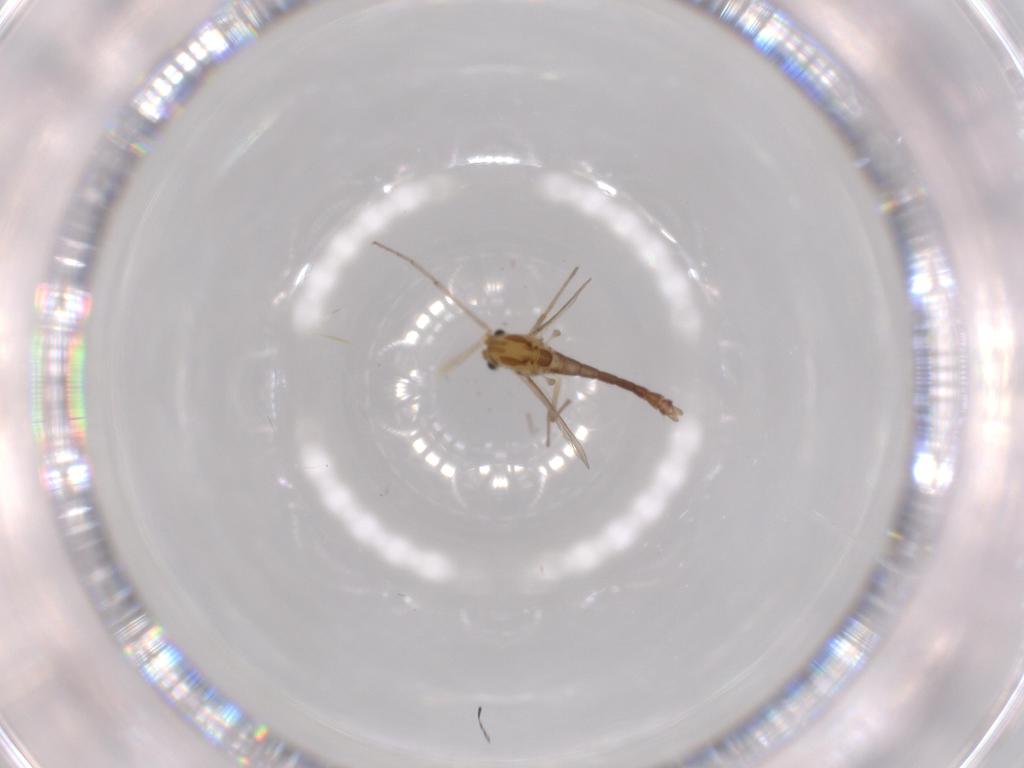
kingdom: Animalia
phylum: Arthropoda
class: Insecta
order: Diptera
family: Chironomidae
